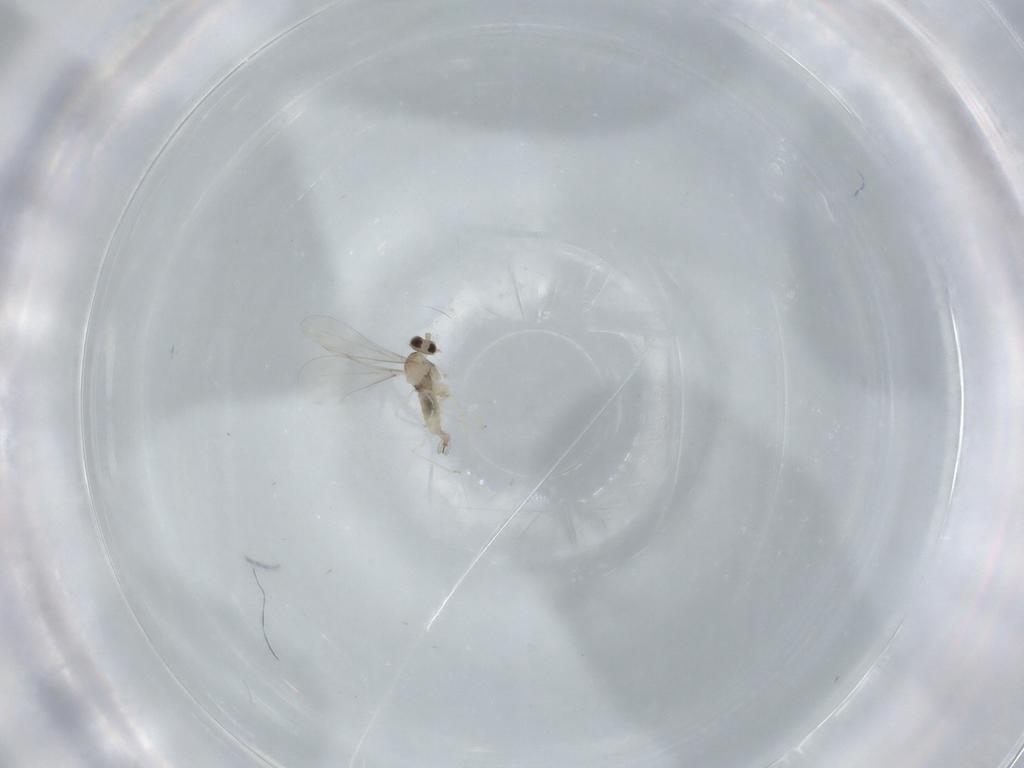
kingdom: Animalia
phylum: Arthropoda
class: Insecta
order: Diptera
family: Cecidomyiidae
